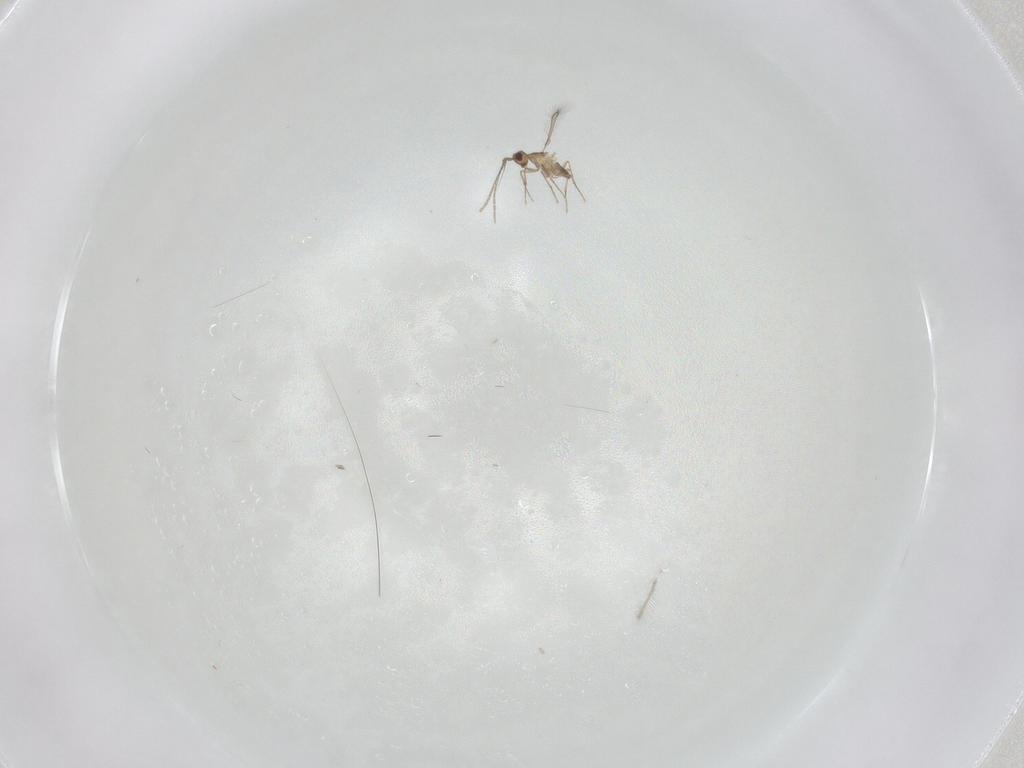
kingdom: Animalia
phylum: Arthropoda
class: Insecta
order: Hymenoptera
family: Mymaridae
